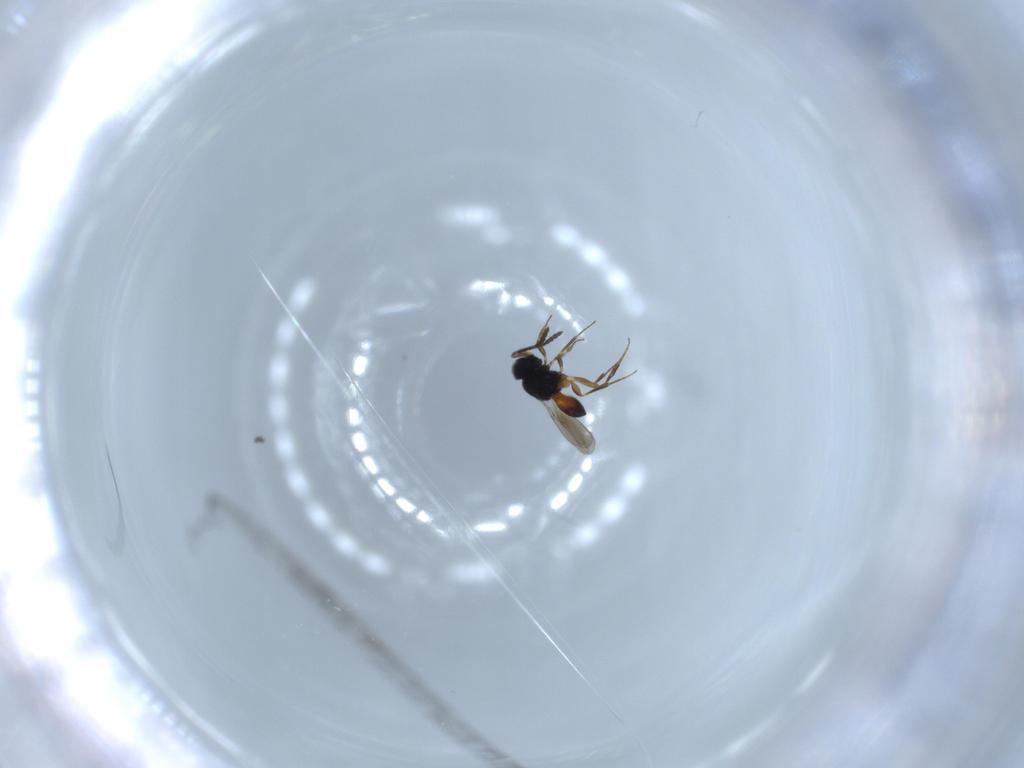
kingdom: Animalia
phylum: Arthropoda
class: Insecta
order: Hymenoptera
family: Scelionidae
